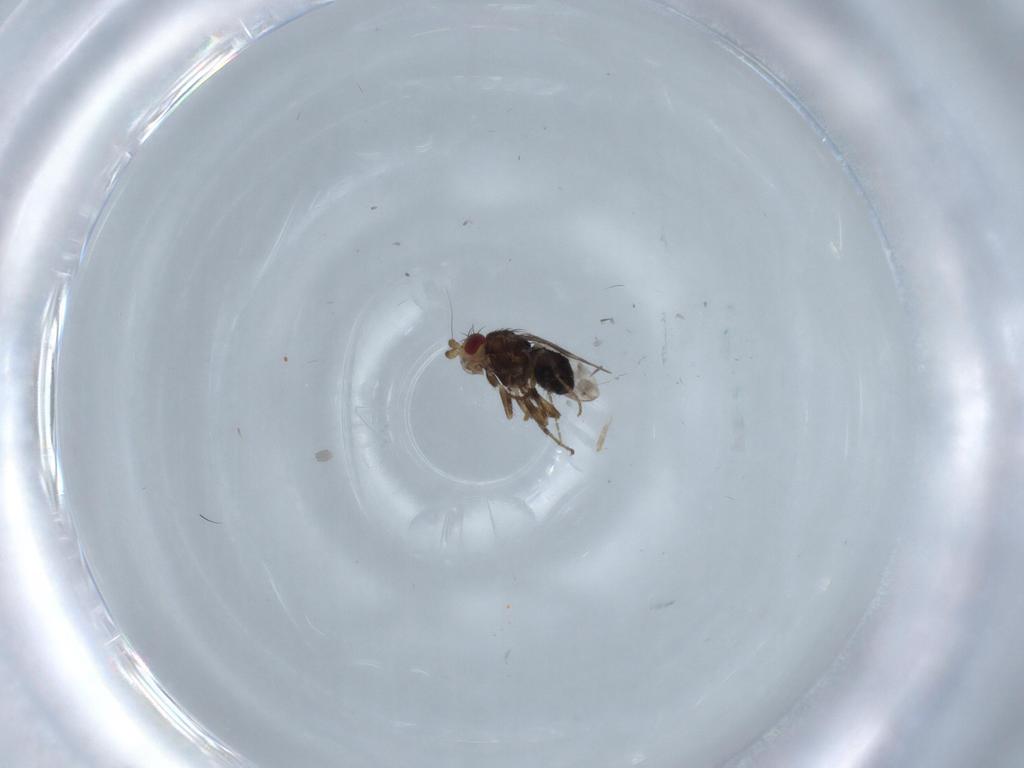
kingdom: Animalia
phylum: Arthropoda
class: Insecta
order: Diptera
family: Sphaeroceridae
